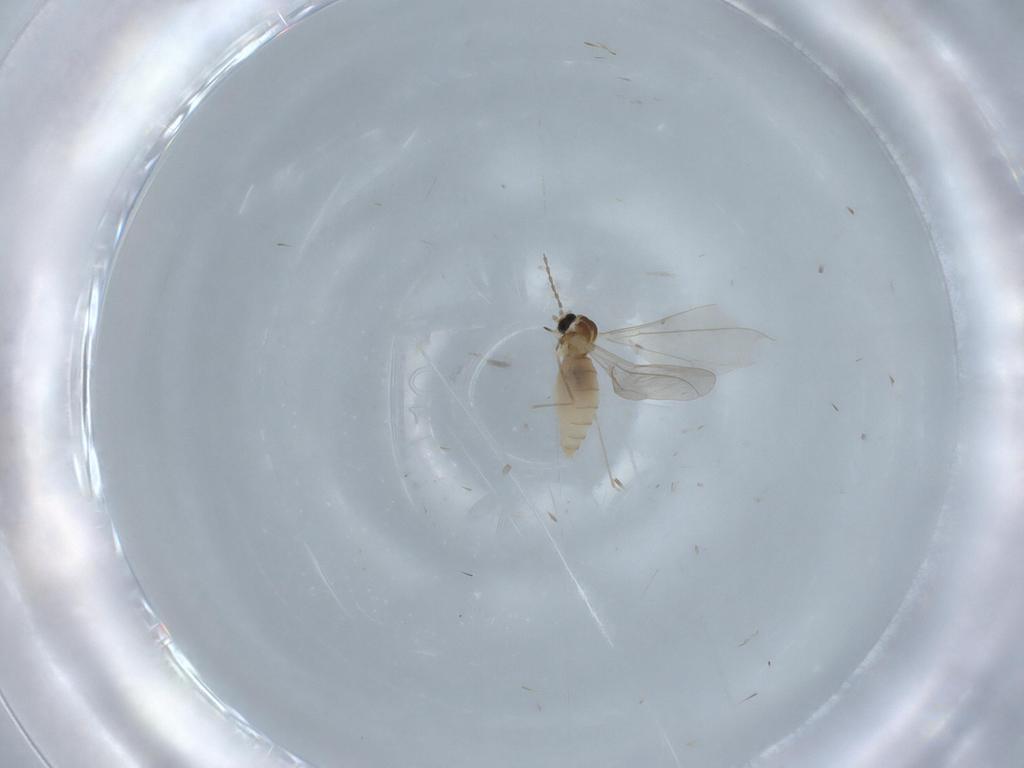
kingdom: Animalia
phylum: Arthropoda
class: Insecta
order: Diptera
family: Cecidomyiidae
